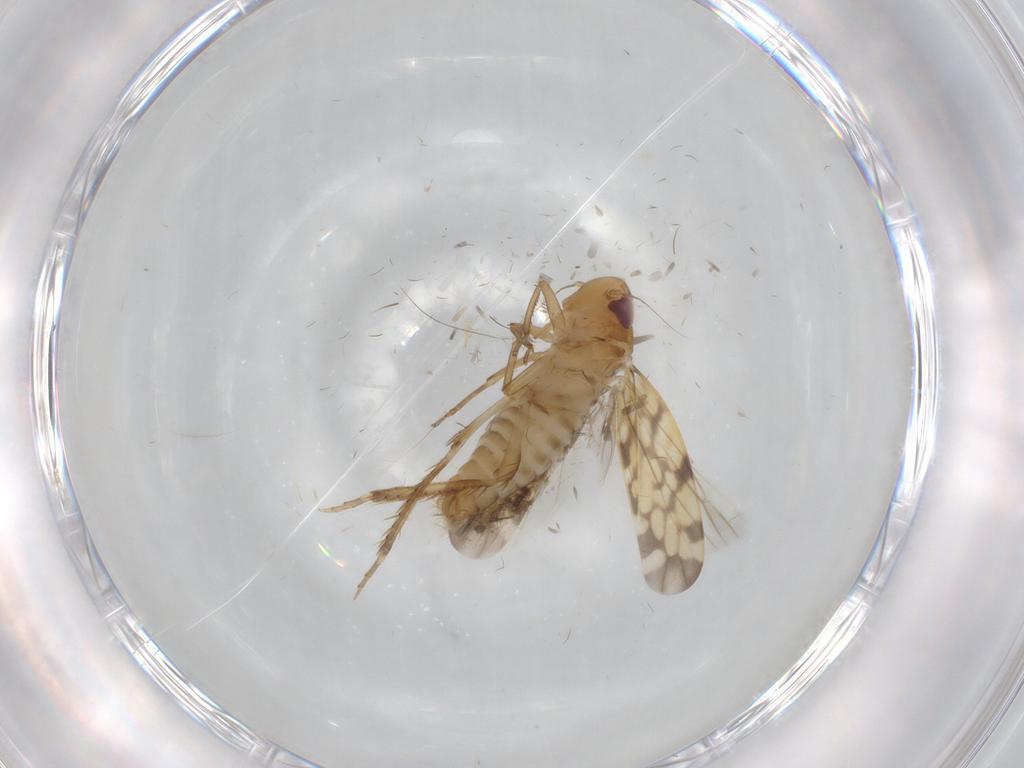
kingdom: Animalia
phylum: Arthropoda
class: Insecta
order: Hemiptera
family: Cicadellidae
